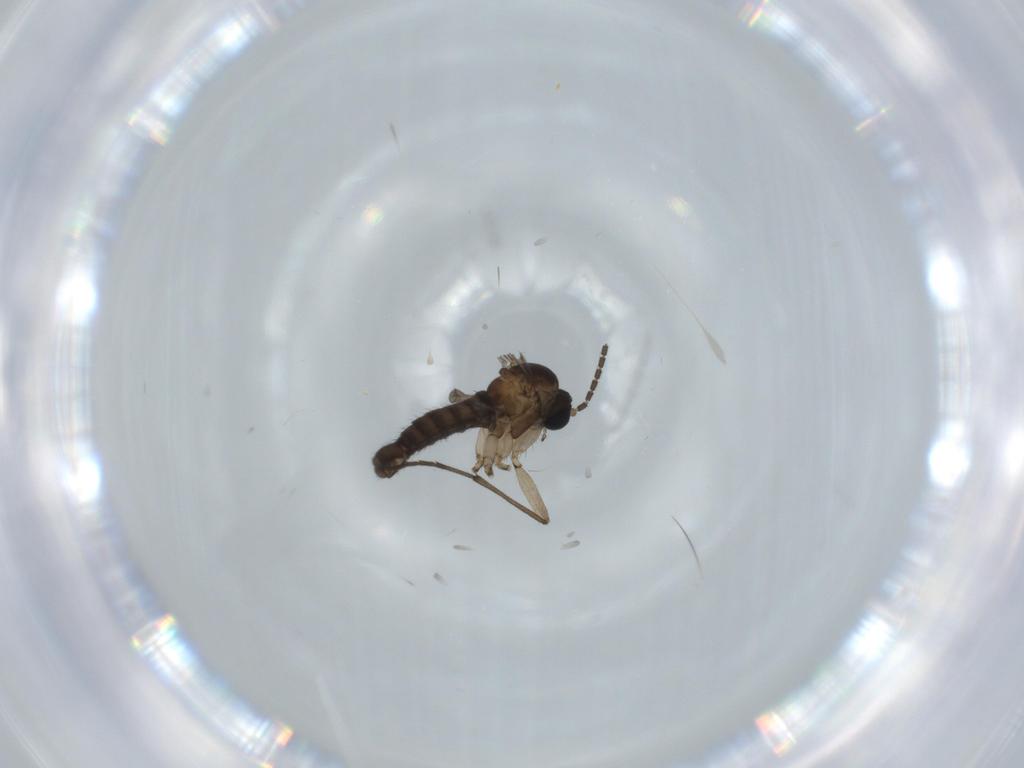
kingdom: Animalia
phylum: Arthropoda
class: Insecta
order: Diptera
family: Sciaridae
